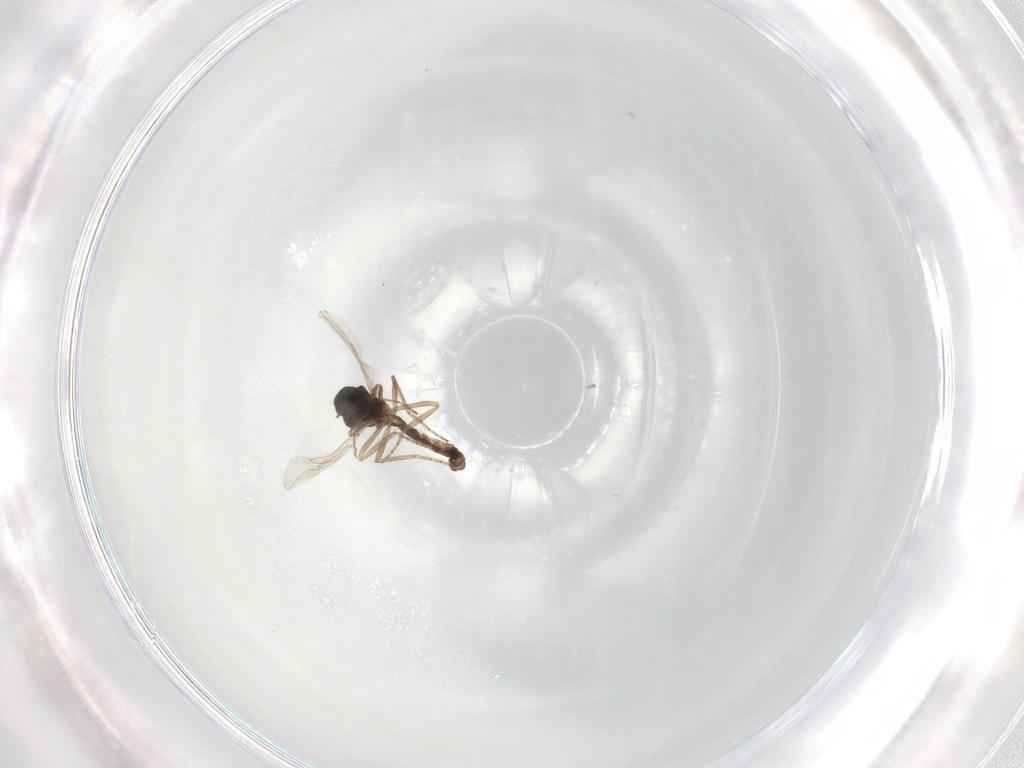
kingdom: Animalia
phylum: Arthropoda
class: Insecta
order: Diptera
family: Ceratopogonidae
